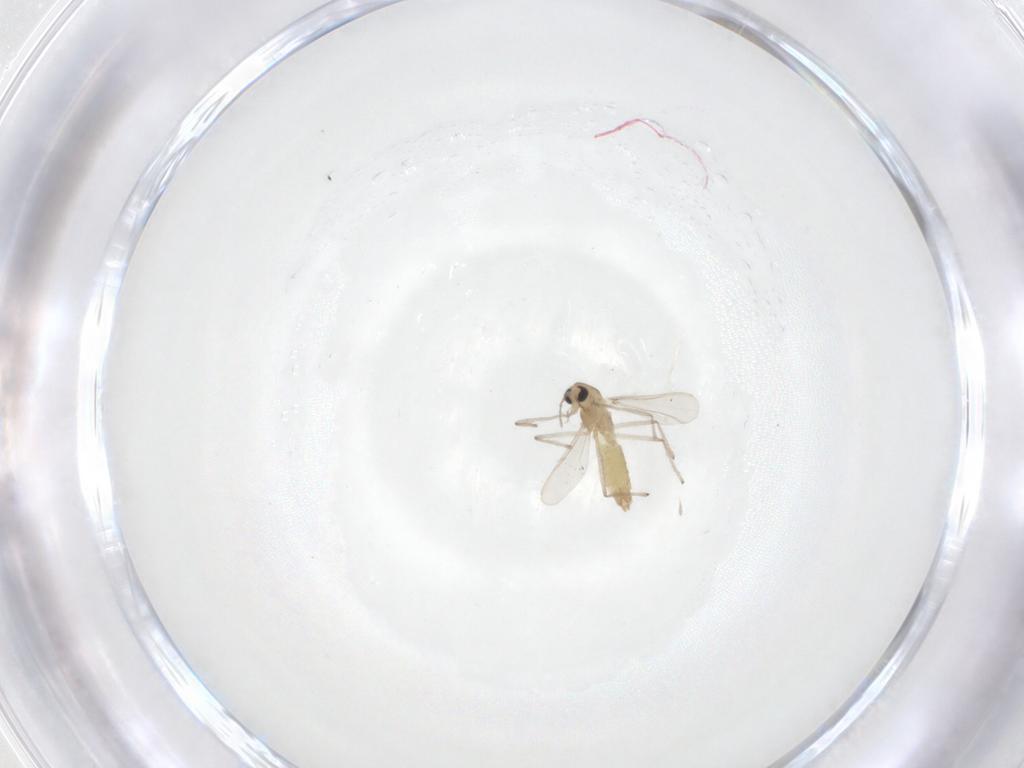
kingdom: Animalia
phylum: Arthropoda
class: Insecta
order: Diptera
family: Chironomidae
